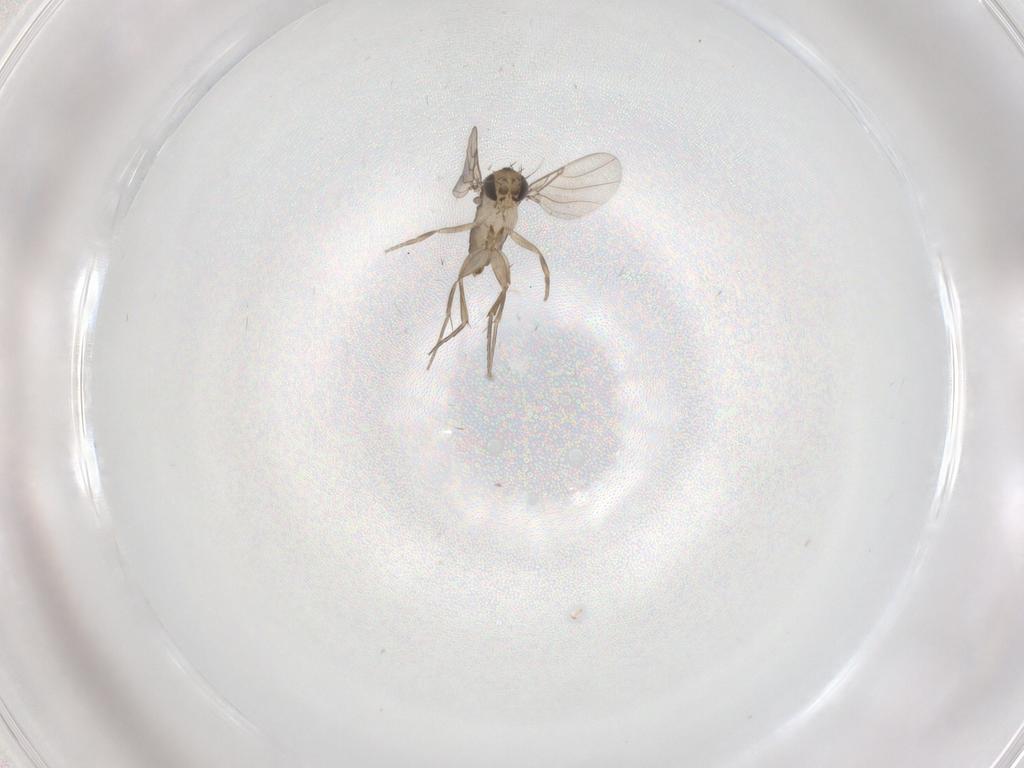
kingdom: Animalia
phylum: Arthropoda
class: Insecta
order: Diptera
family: Phoridae
